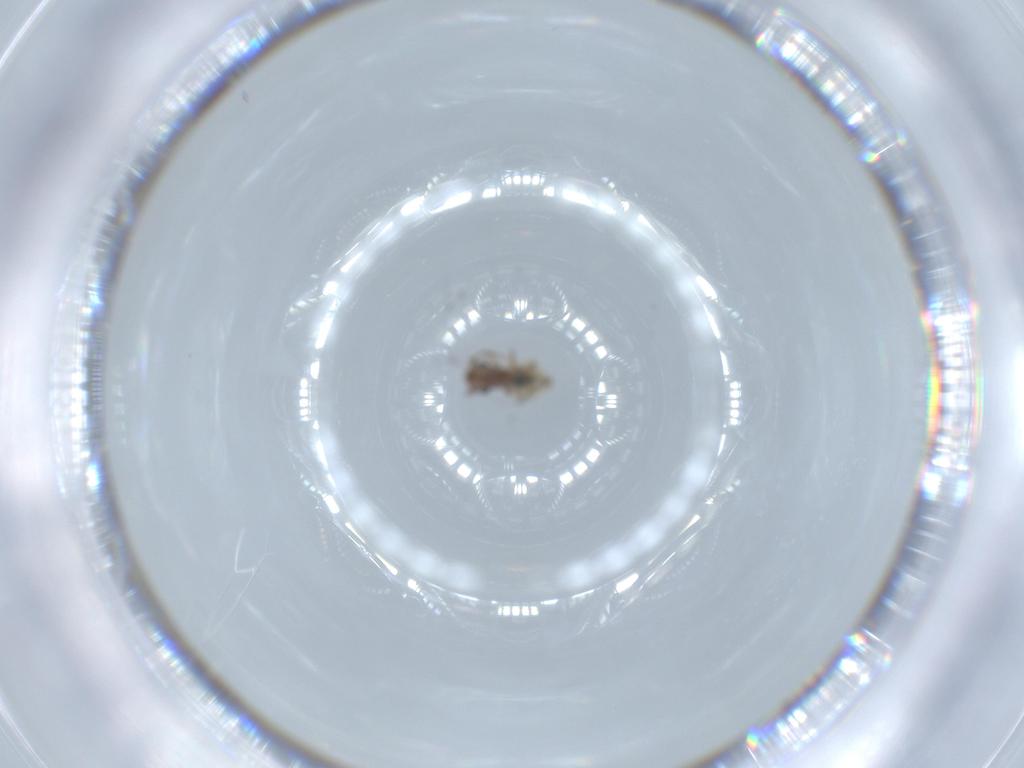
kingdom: Animalia
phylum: Arthropoda
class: Insecta
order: Psocodea
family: Lepidopsocidae
